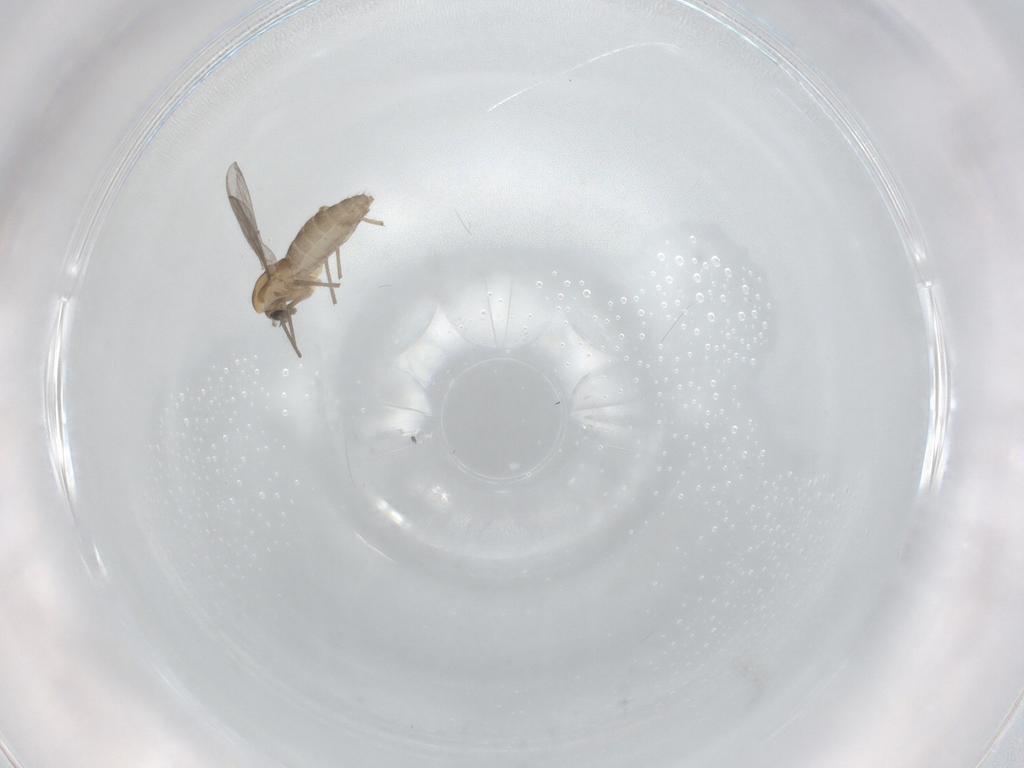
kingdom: Animalia
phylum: Arthropoda
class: Insecta
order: Diptera
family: Chironomidae
